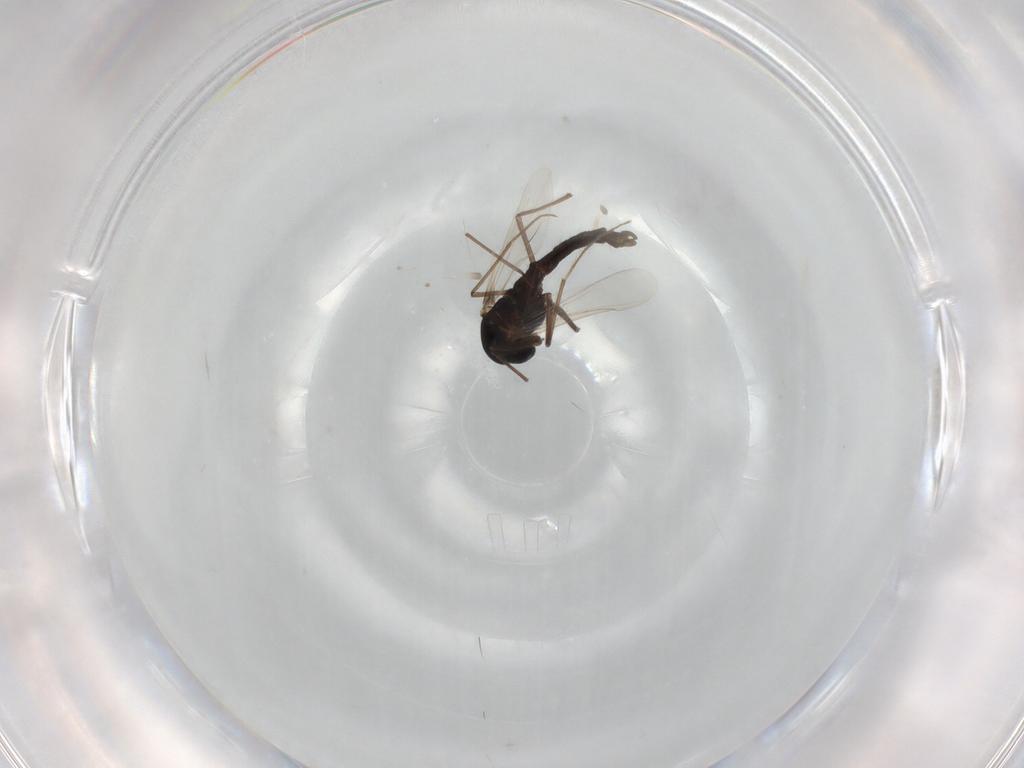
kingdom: Animalia
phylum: Arthropoda
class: Insecta
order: Diptera
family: Chironomidae
